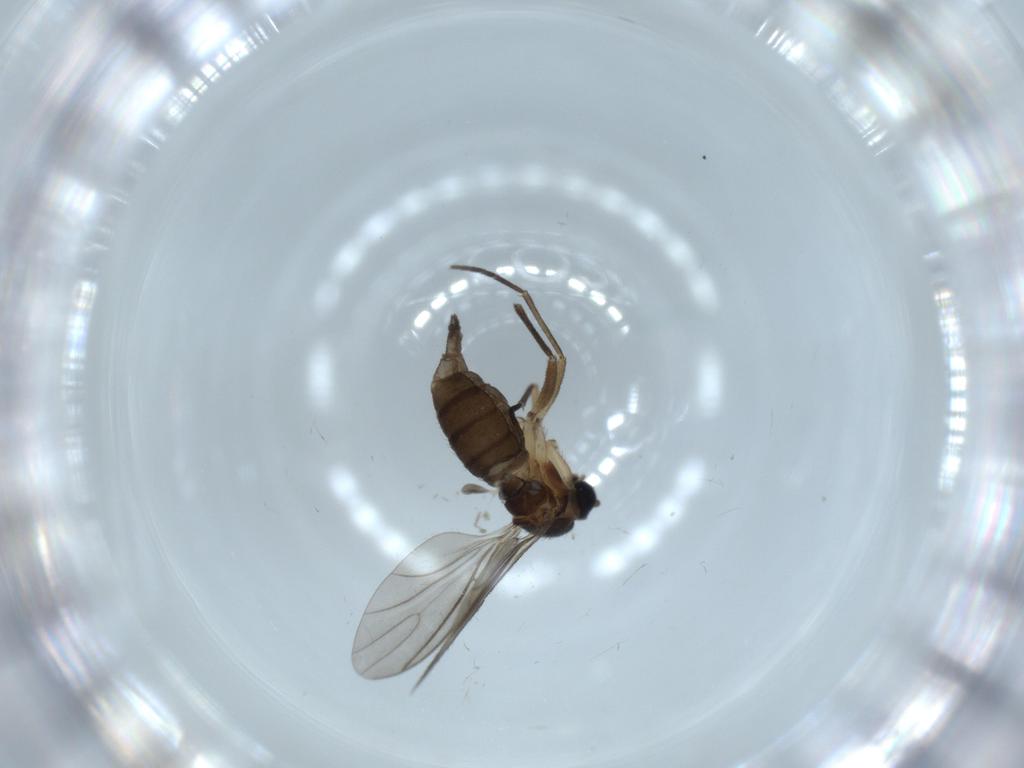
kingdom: Animalia
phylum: Arthropoda
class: Insecta
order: Diptera
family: Sciaridae
